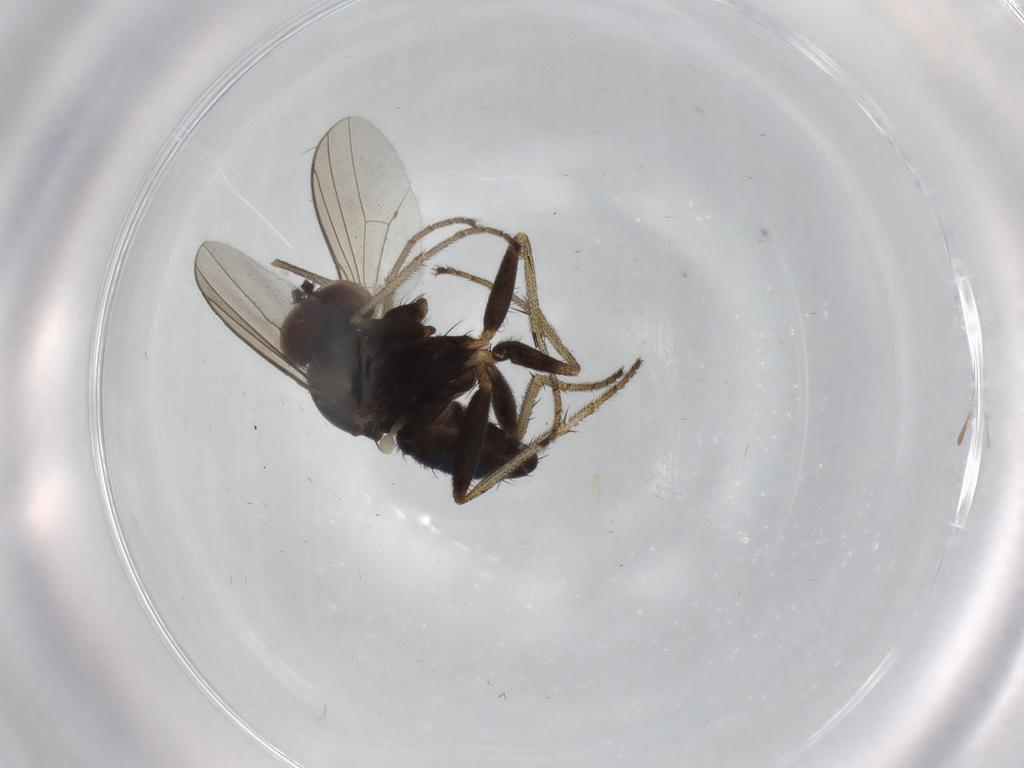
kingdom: Animalia
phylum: Arthropoda
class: Insecta
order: Diptera
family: Dolichopodidae
